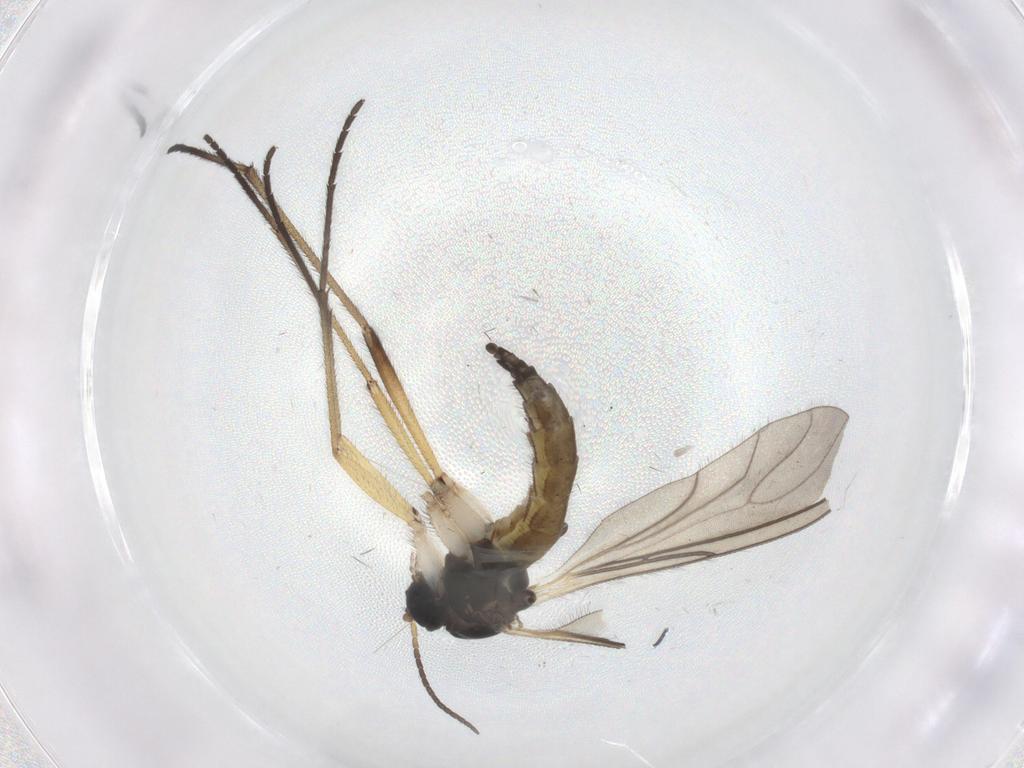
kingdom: Animalia
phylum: Arthropoda
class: Insecta
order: Diptera
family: Sciaridae
